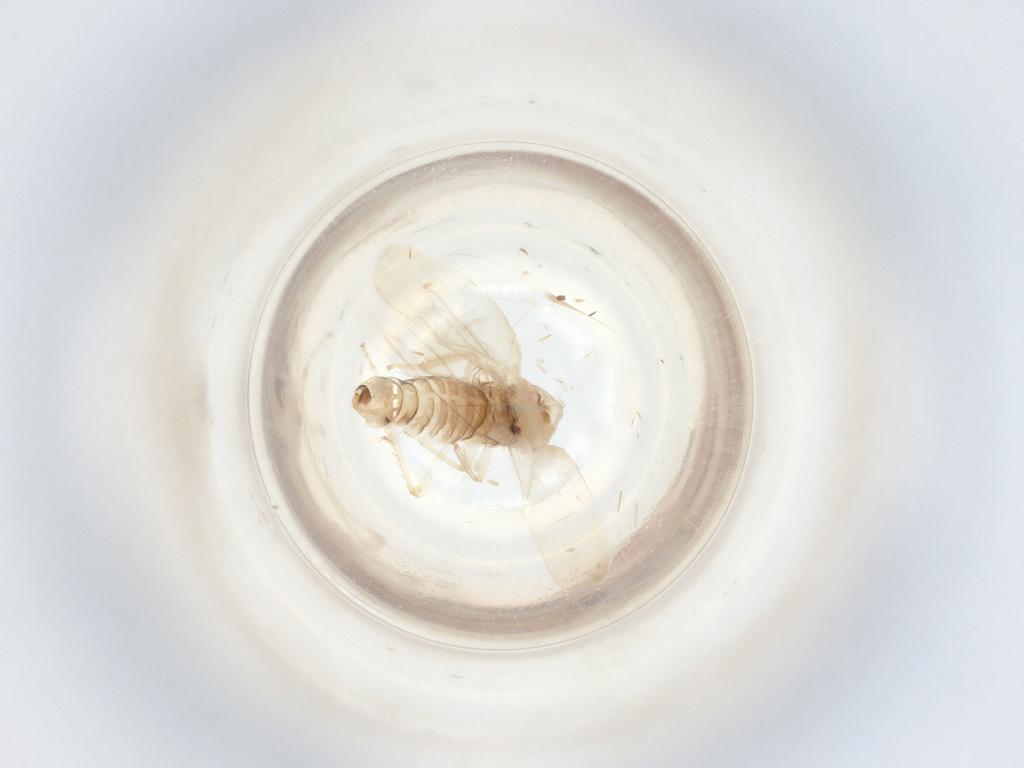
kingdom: Animalia
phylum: Arthropoda
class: Insecta
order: Hemiptera
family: Cicadellidae
